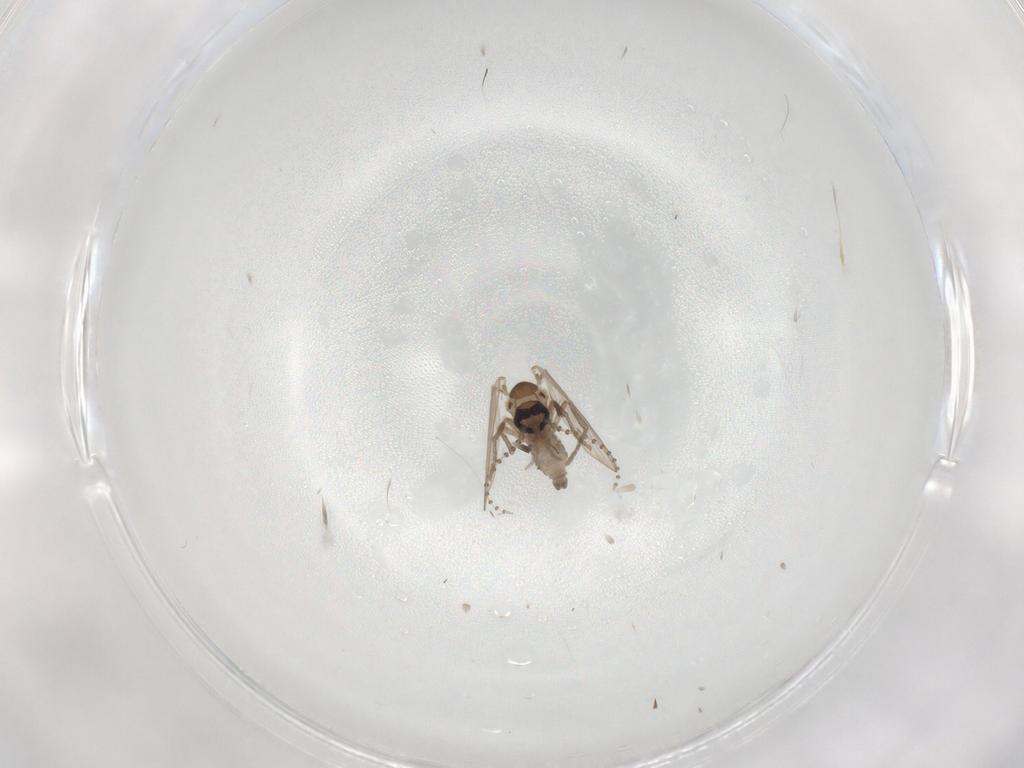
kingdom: Animalia
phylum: Arthropoda
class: Insecta
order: Diptera
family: Psychodidae
